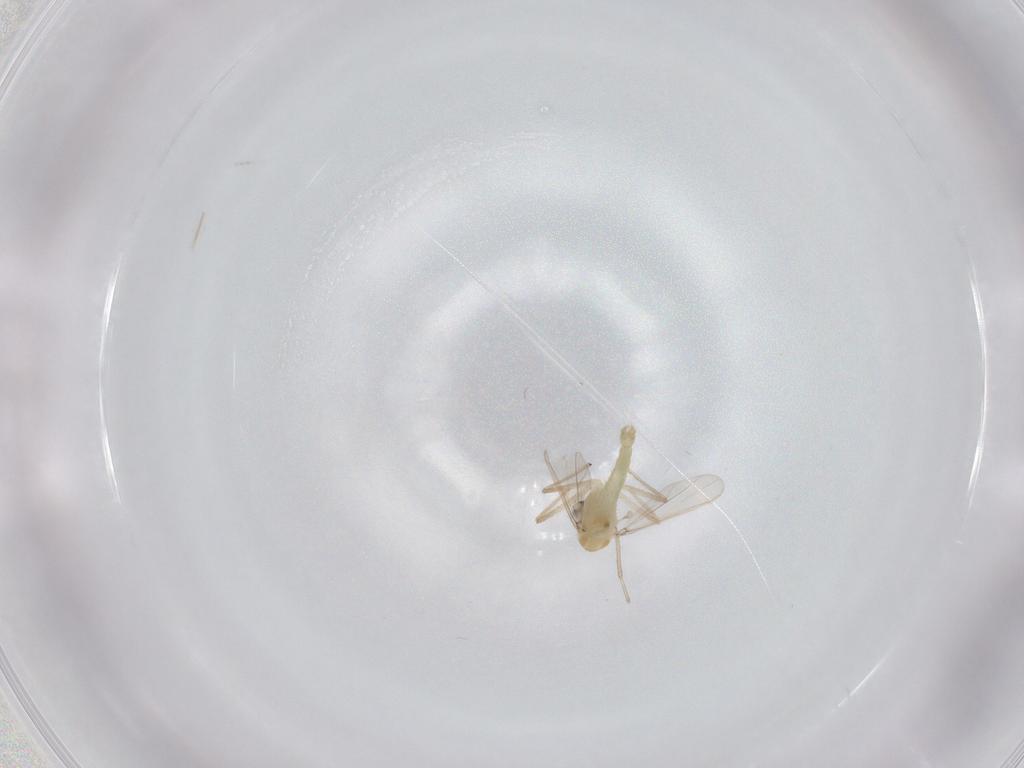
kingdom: Animalia
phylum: Arthropoda
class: Insecta
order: Diptera
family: Chironomidae
